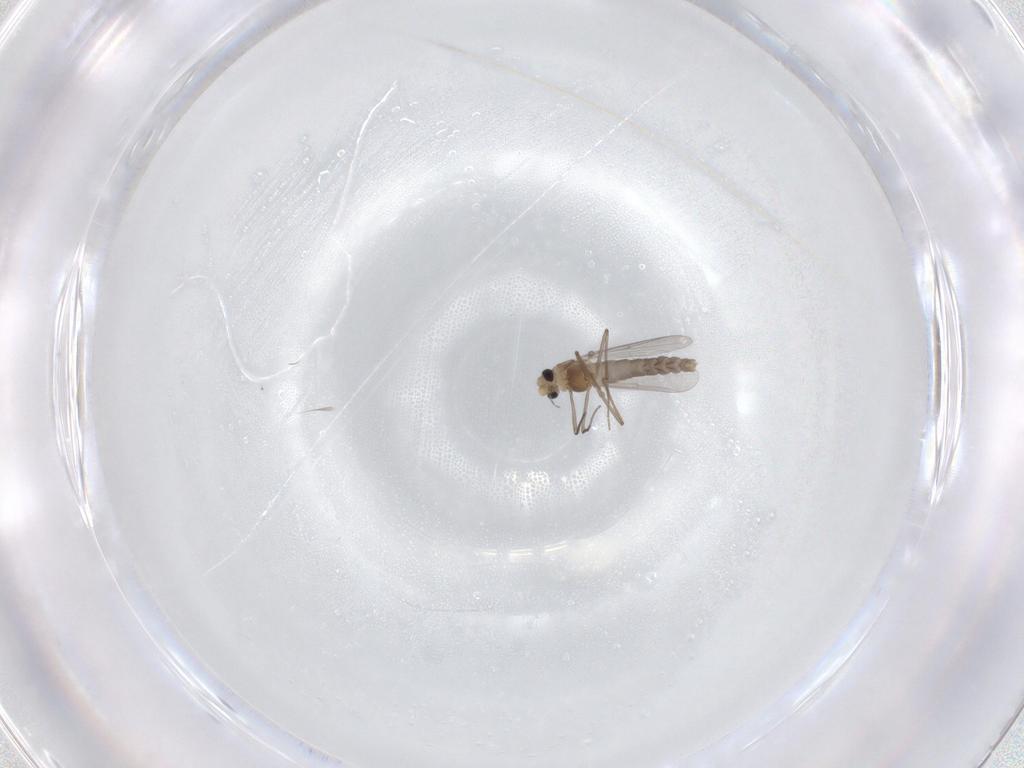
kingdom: Animalia
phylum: Arthropoda
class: Insecta
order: Diptera
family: Chironomidae
